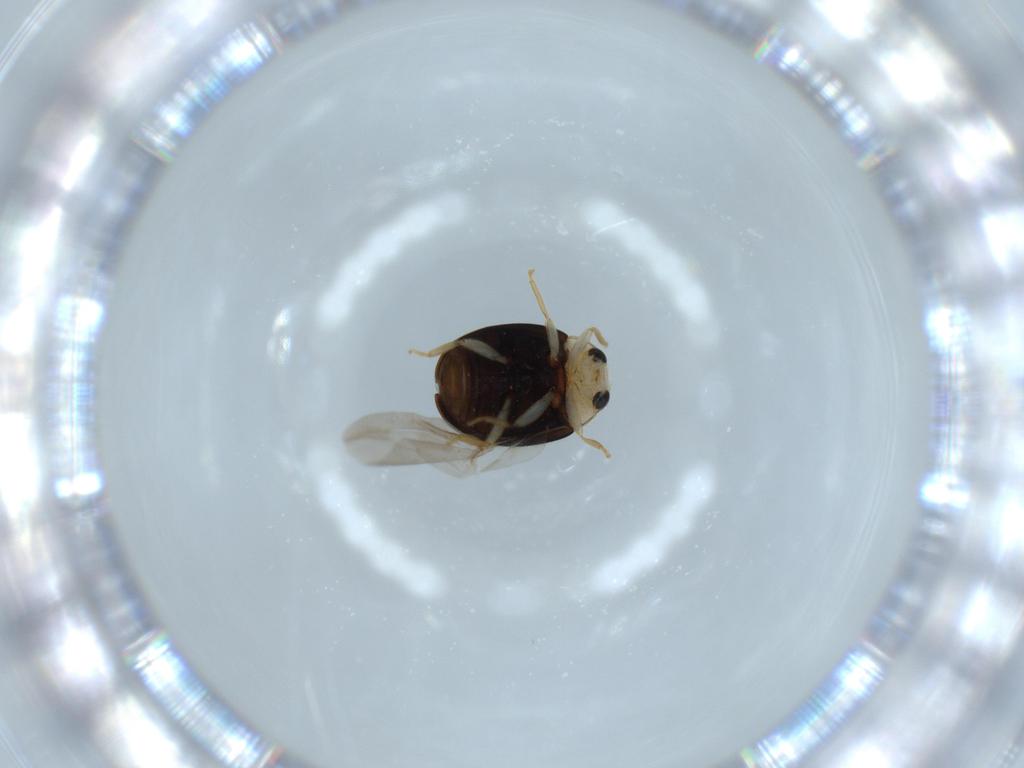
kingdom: Animalia
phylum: Arthropoda
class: Insecta
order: Coleoptera
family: Coccinellidae
